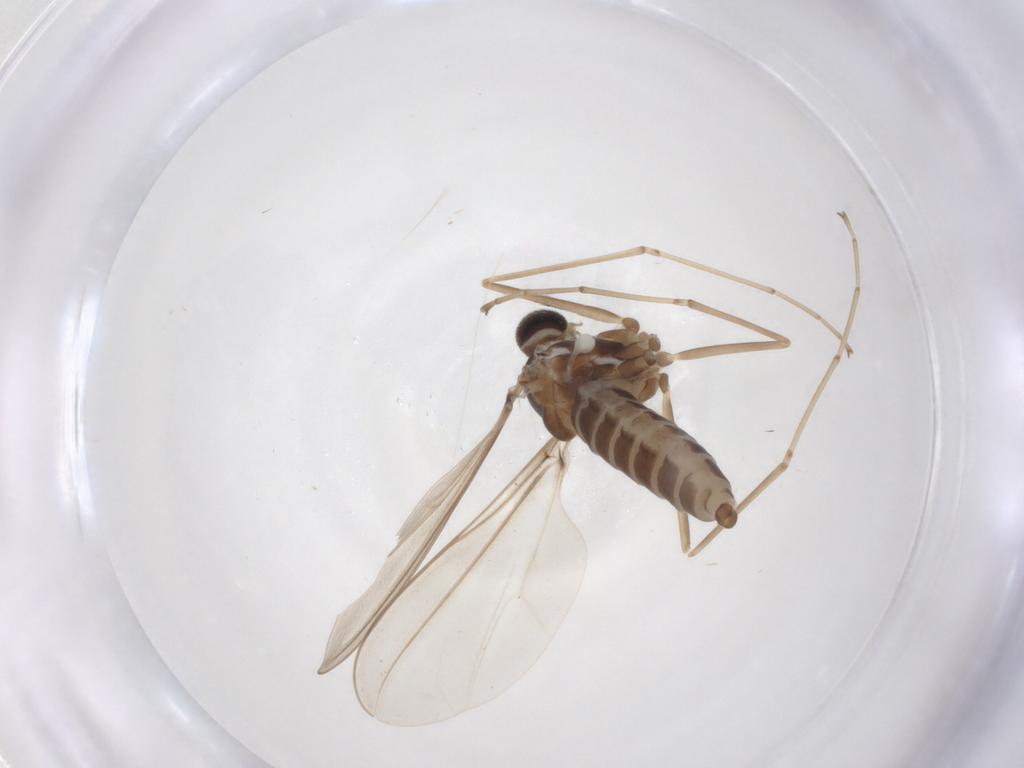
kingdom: Animalia
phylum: Arthropoda
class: Insecta
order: Diptera
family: Cecidomyiidae
